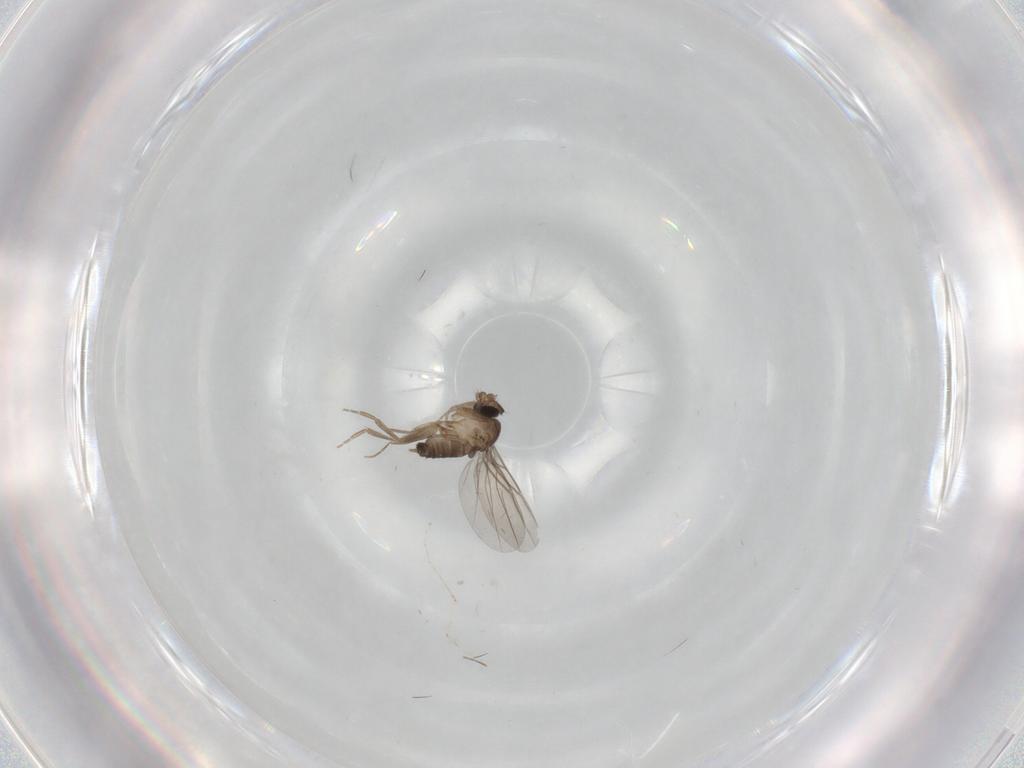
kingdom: Animalia
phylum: Arthropoda
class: Insecta
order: Diptera
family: Phoridae
